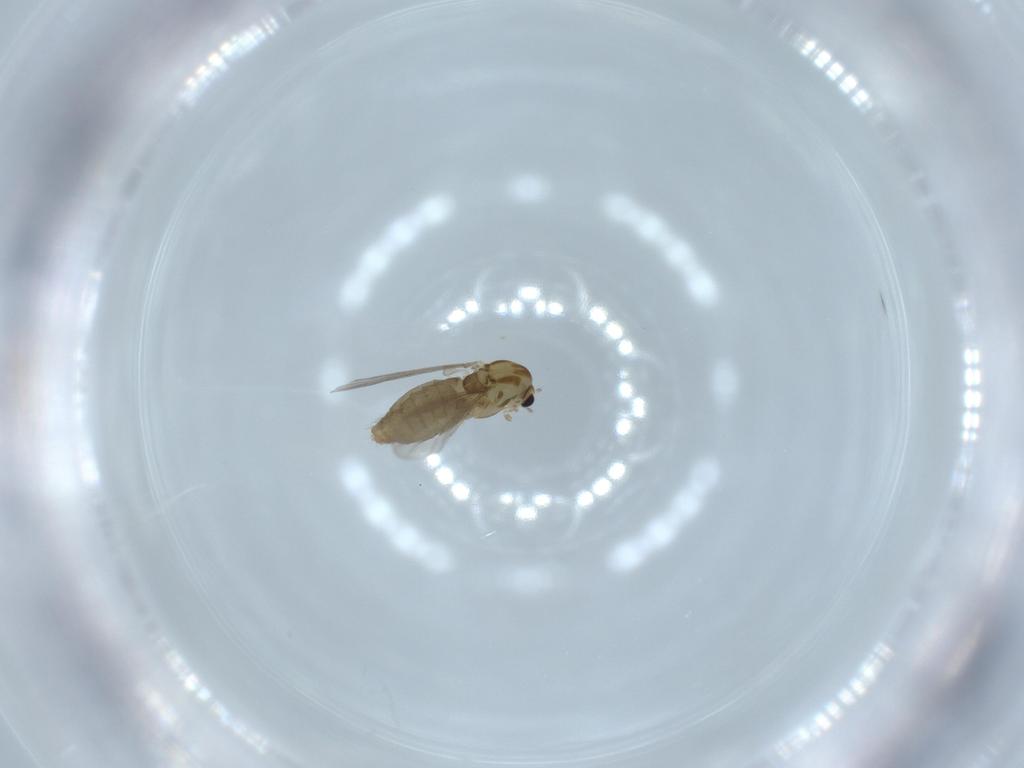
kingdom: Animalia
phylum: Arthropoda
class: Insecta
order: Diptera
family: Chironomidae
